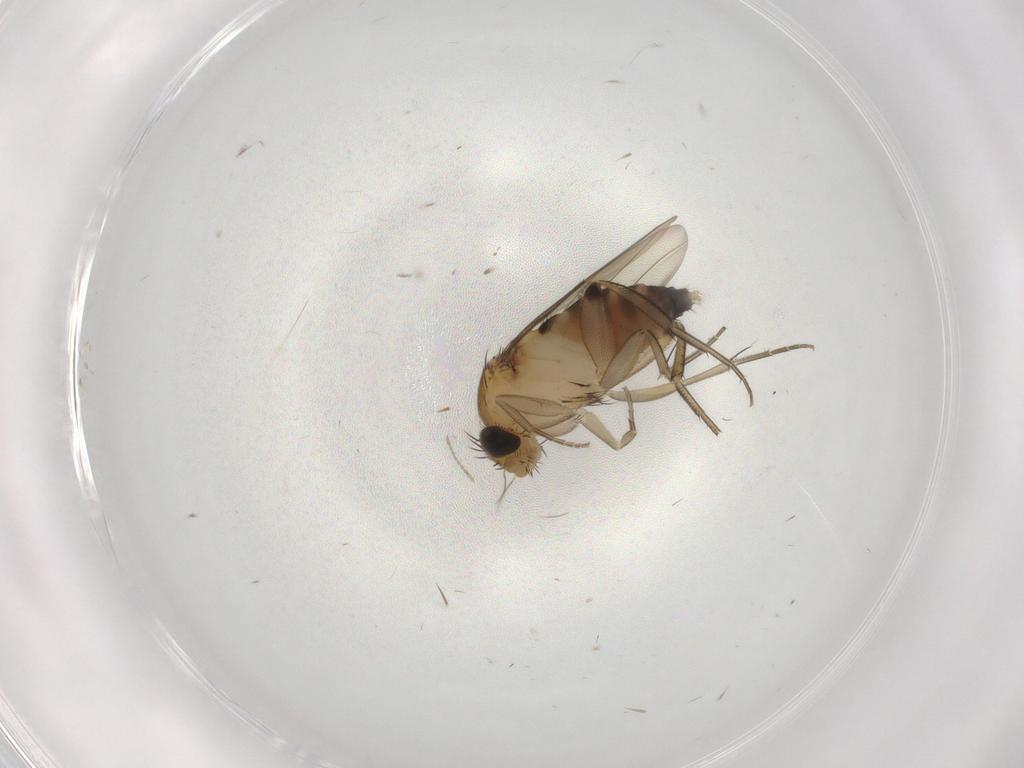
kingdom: Animalia
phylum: Arthropoda
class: Insecta
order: Diptera
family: Phoridae
